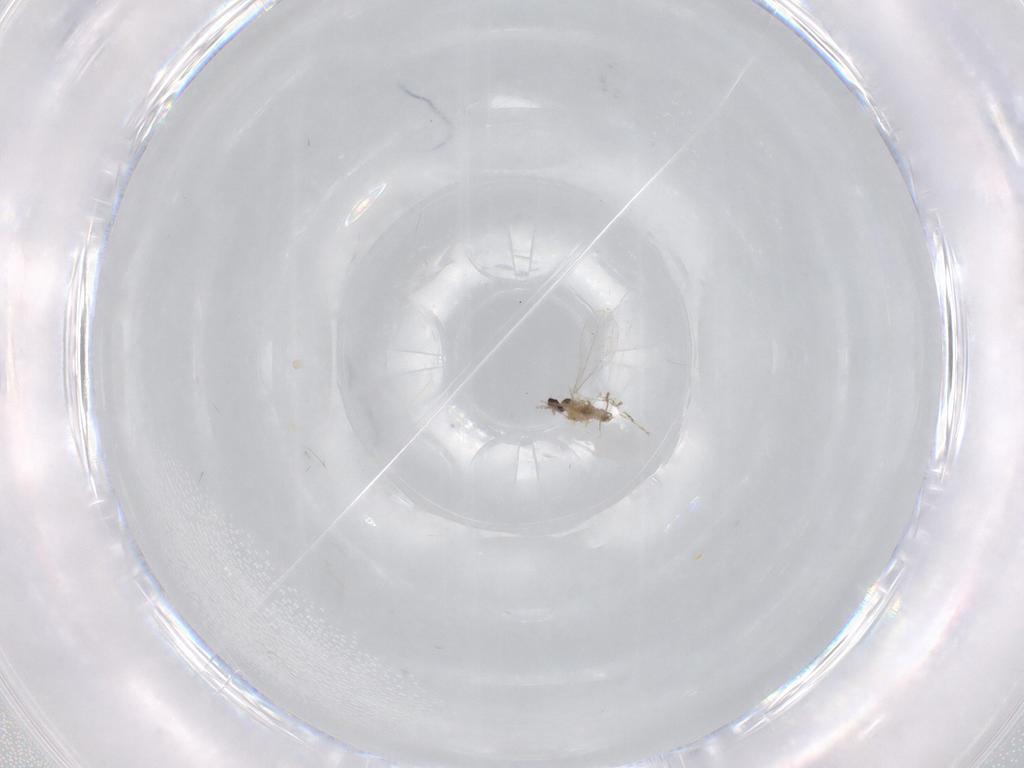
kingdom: Animalia
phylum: Arthropoda
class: Insecta
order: Diptera
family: Cecidomyiidae
